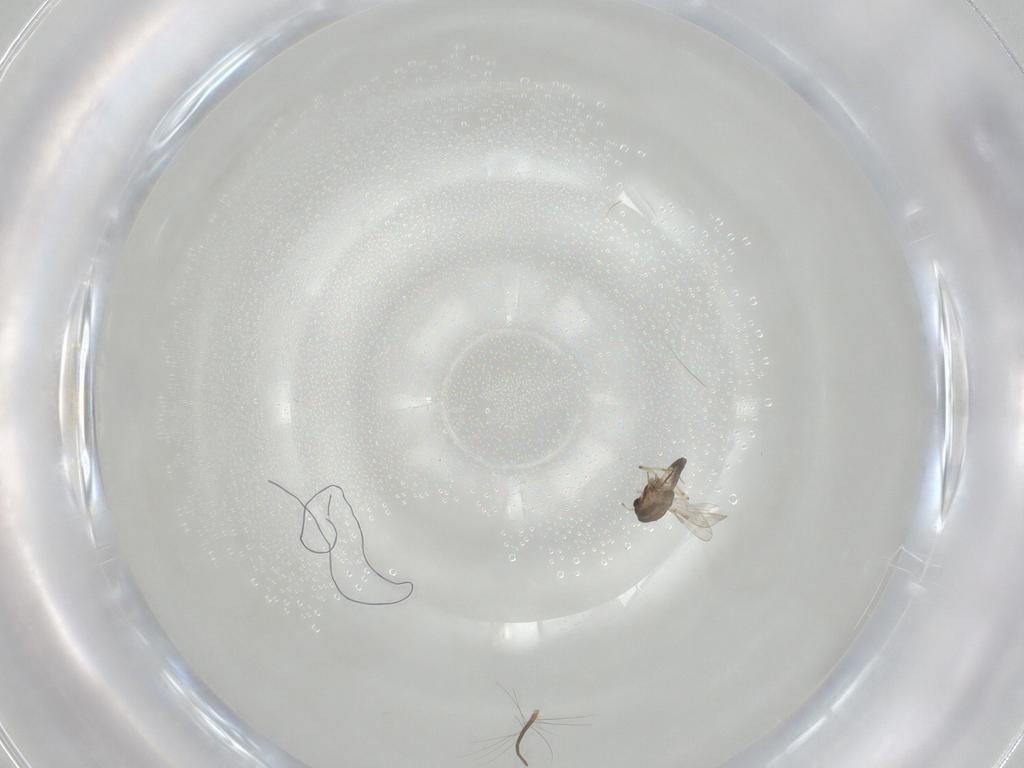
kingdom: Animalia
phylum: Arthropoda
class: Insecta
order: Diptera
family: Chironomidae
